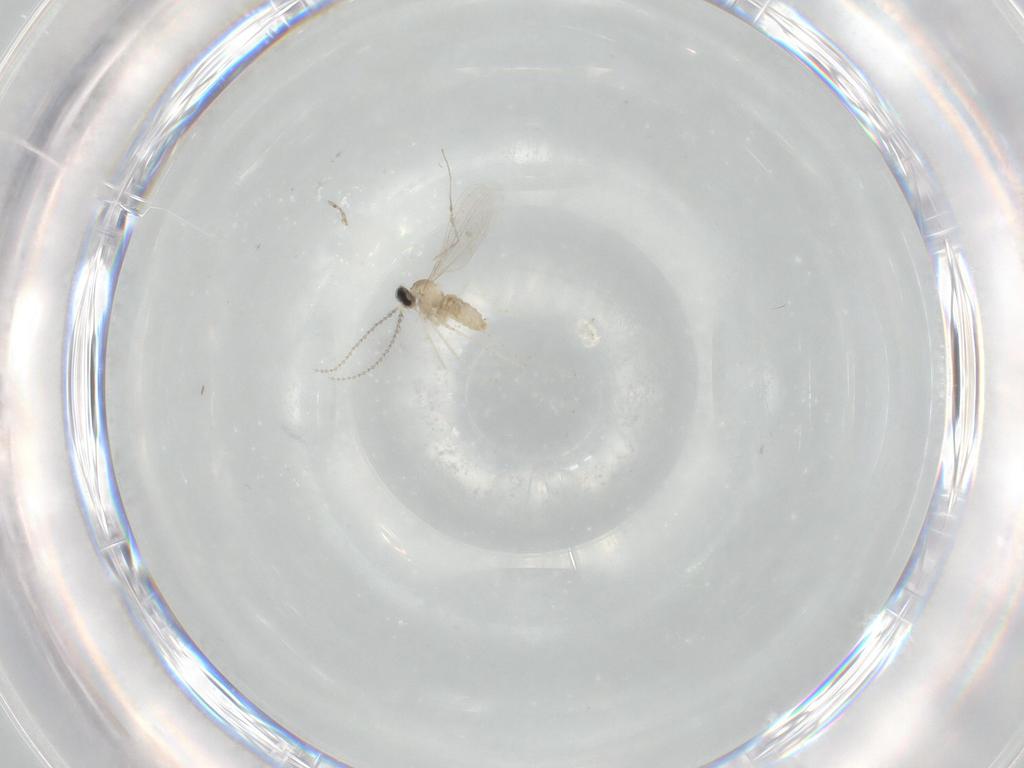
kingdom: Animalia
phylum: Arthropoda
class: Insecta
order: Diptera
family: Cecidomyiidae
